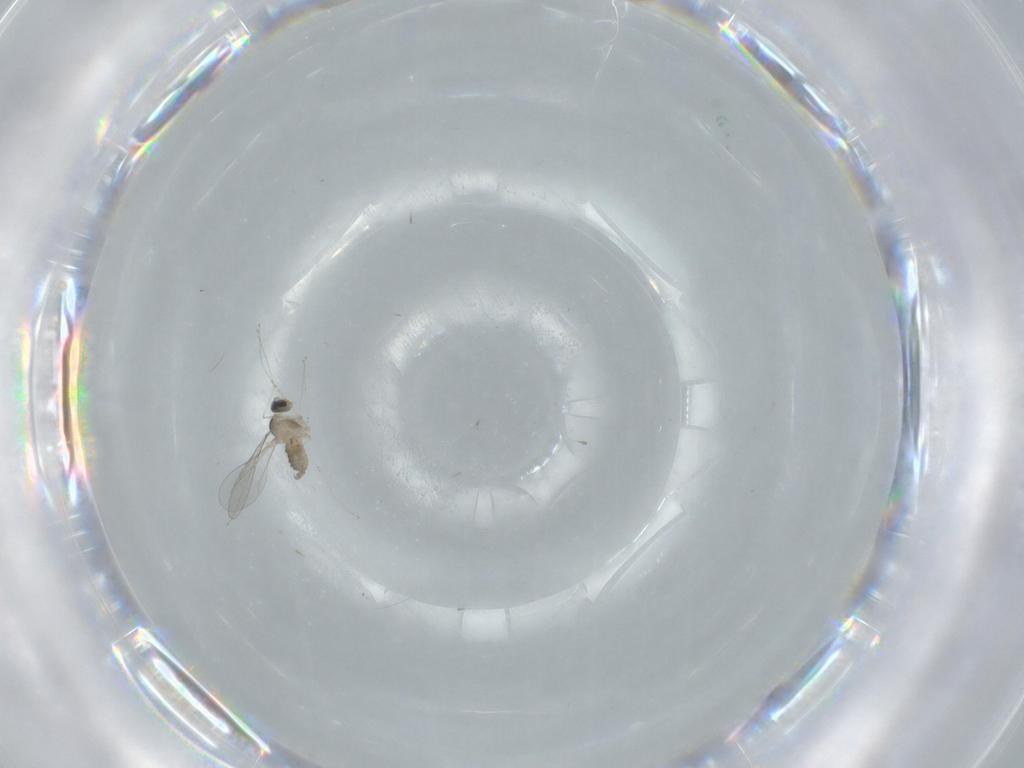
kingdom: Animalia
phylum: Arthropoda
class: Insecta
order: Diptera
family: Cecidomyiidae
